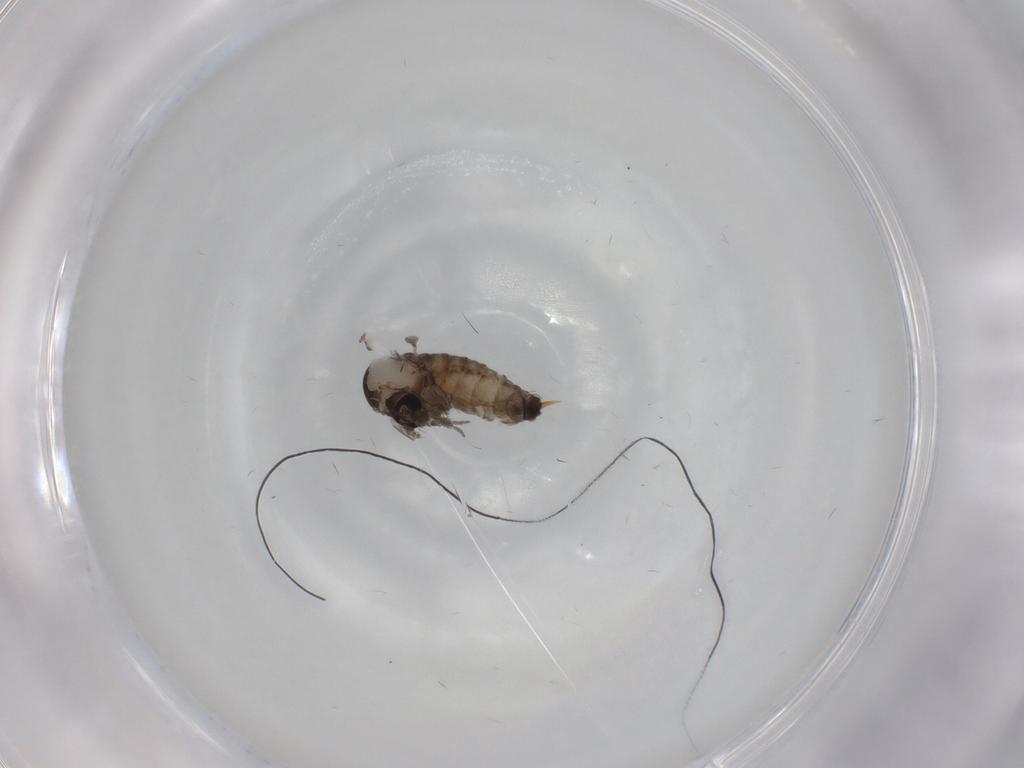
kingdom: Animalia
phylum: Arthropoda
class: Insecta
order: Diptera
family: Psychodidae
